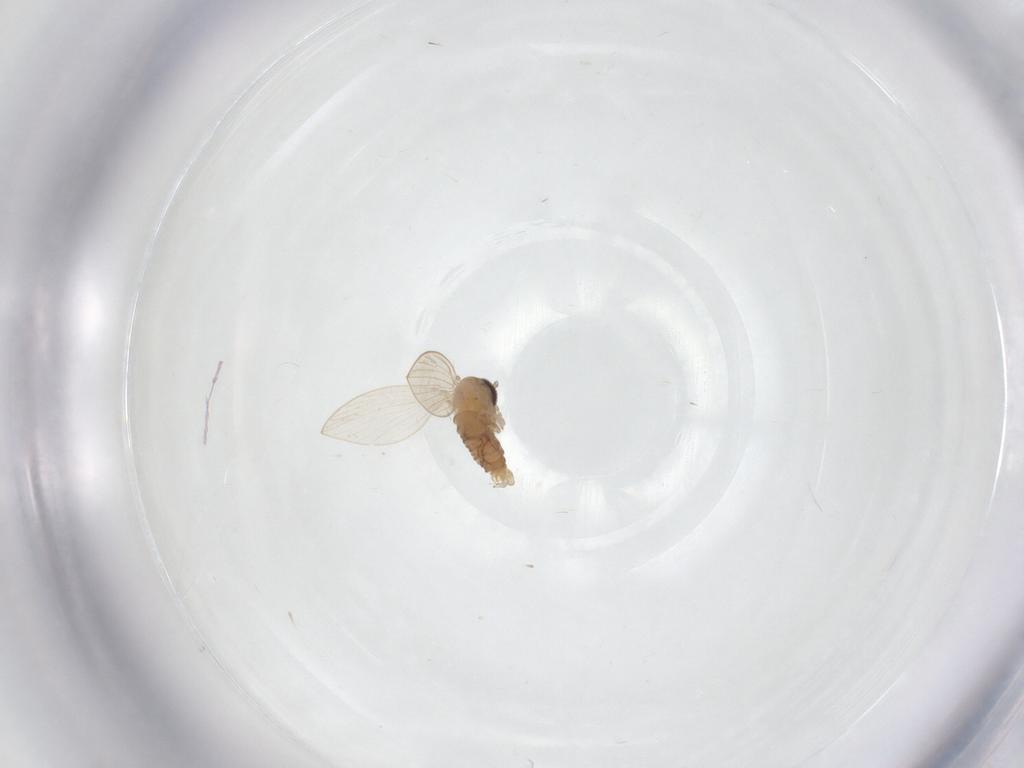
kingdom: Animalia
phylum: Arthropoda
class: Insecta
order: Diptera
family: Psychodidae
